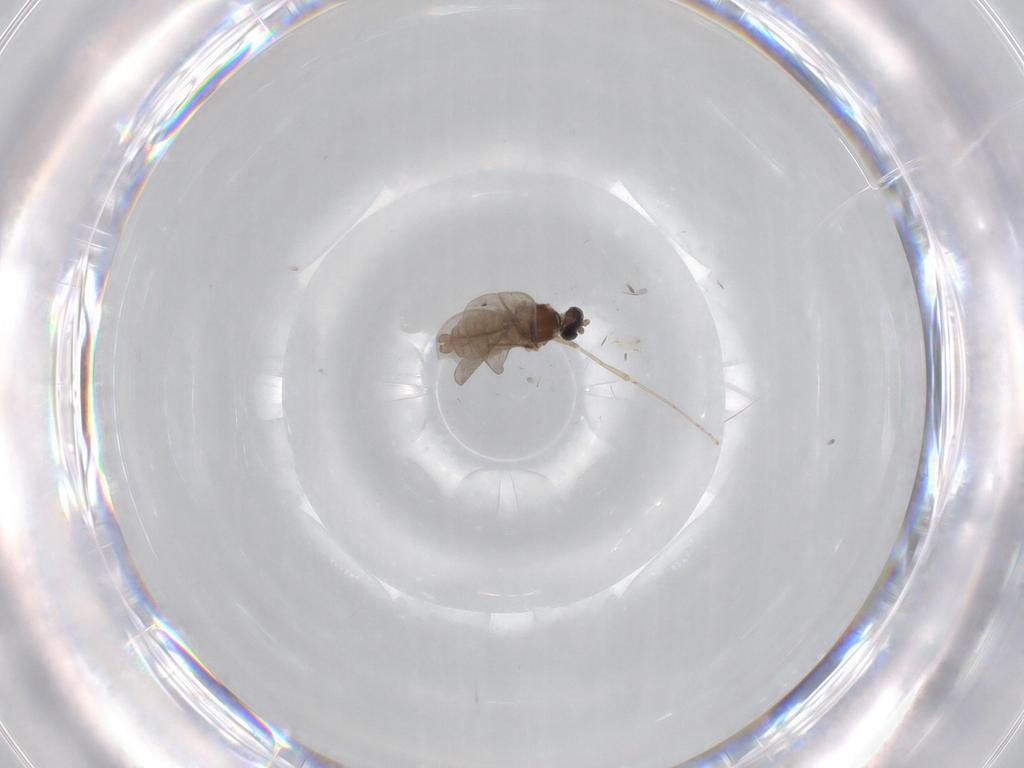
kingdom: Animalia
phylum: Arthropoda
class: Insecta
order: Diptera
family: Cecidomyiidae
